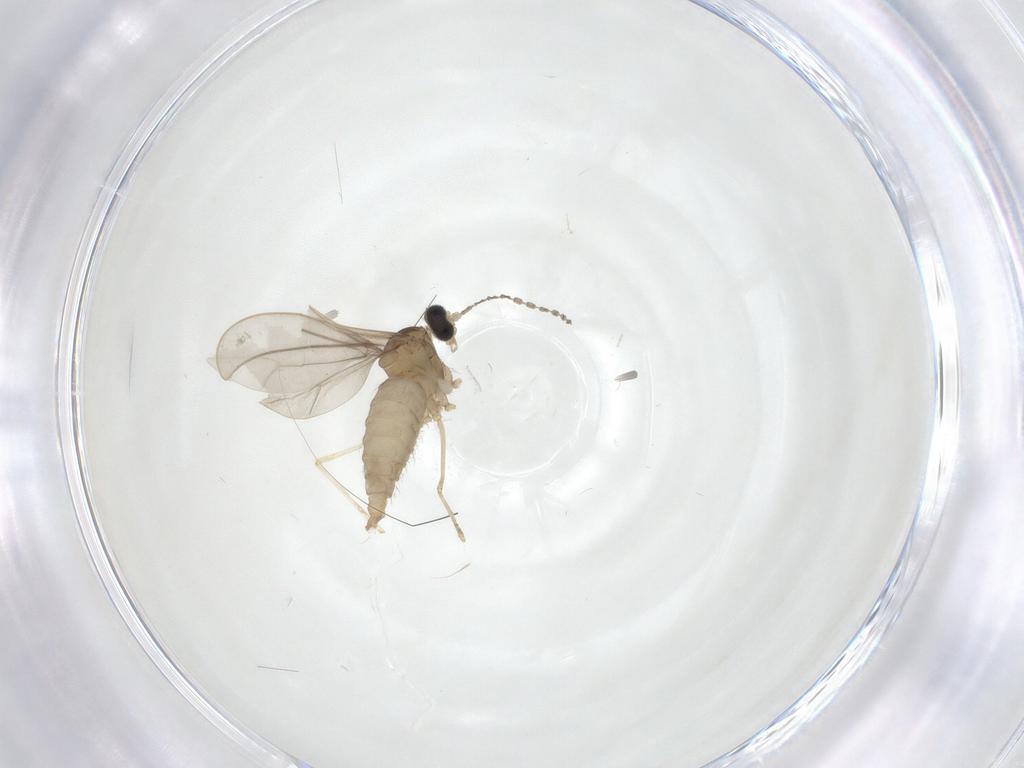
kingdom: Animalia
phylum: Arthropoda
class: Insecta
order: Diptera
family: Cecidomyiidae
